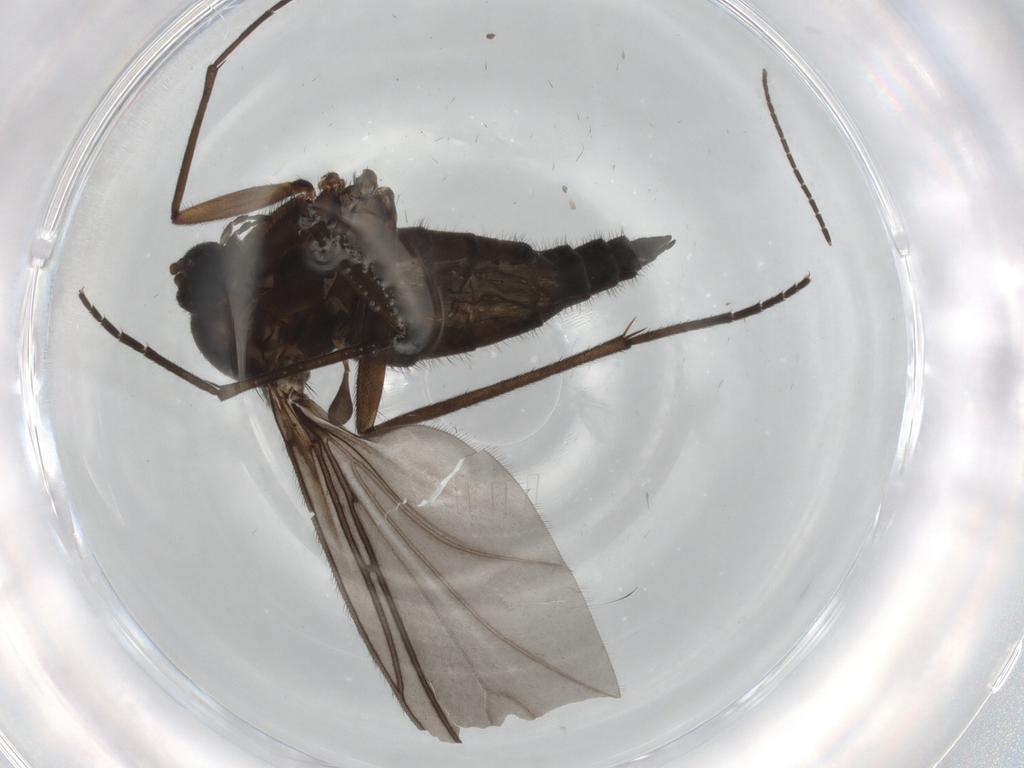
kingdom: Animalia
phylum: Arthropoda
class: Insecta
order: Diptera
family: Sciaridae
